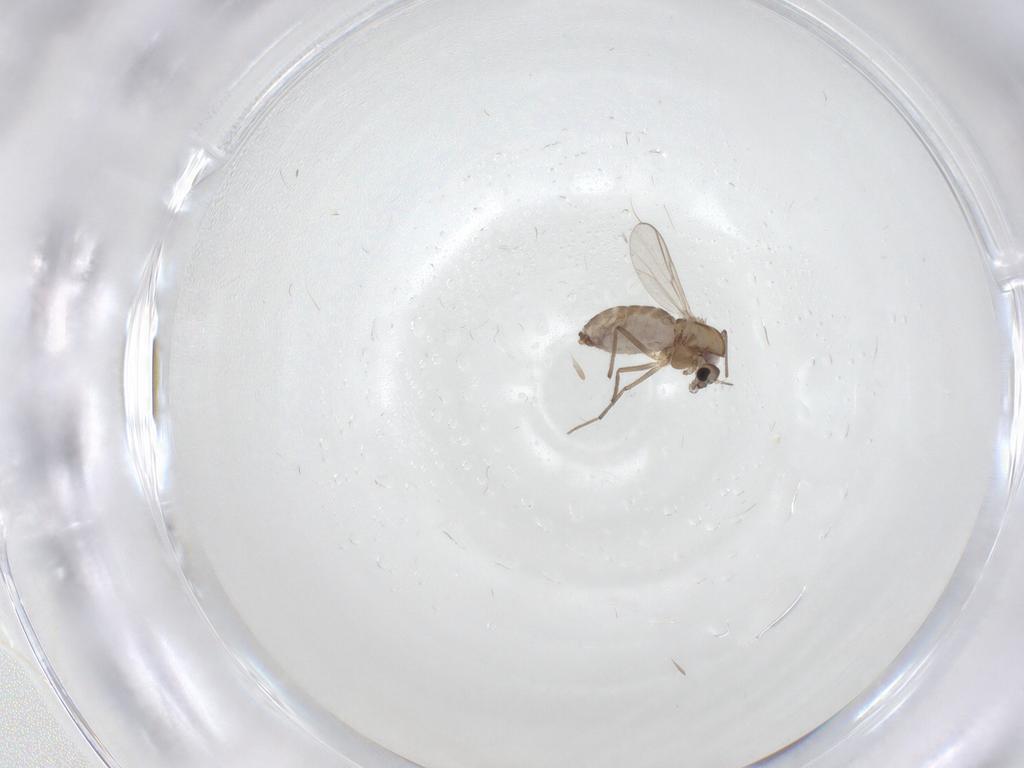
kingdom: Animalia
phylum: Arthropoda
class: Insecta
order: Diptera
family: Chironomidae
